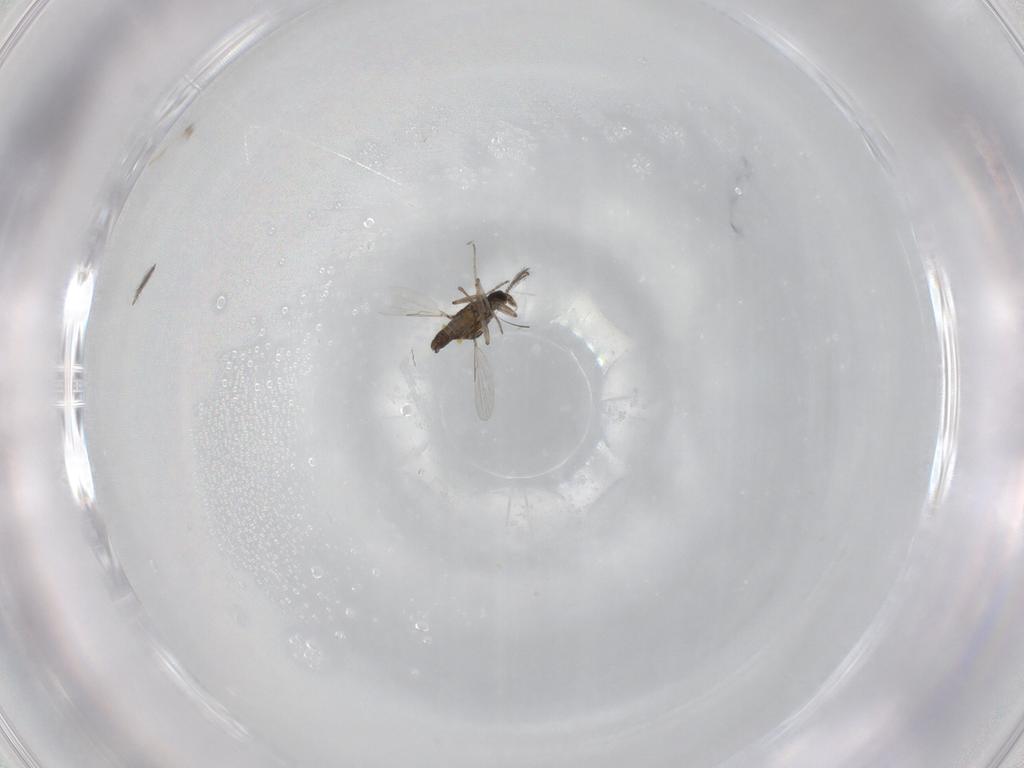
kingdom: Animalia
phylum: Arthropoda
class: Insecta
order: Diptera
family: Ceratopogonidae
